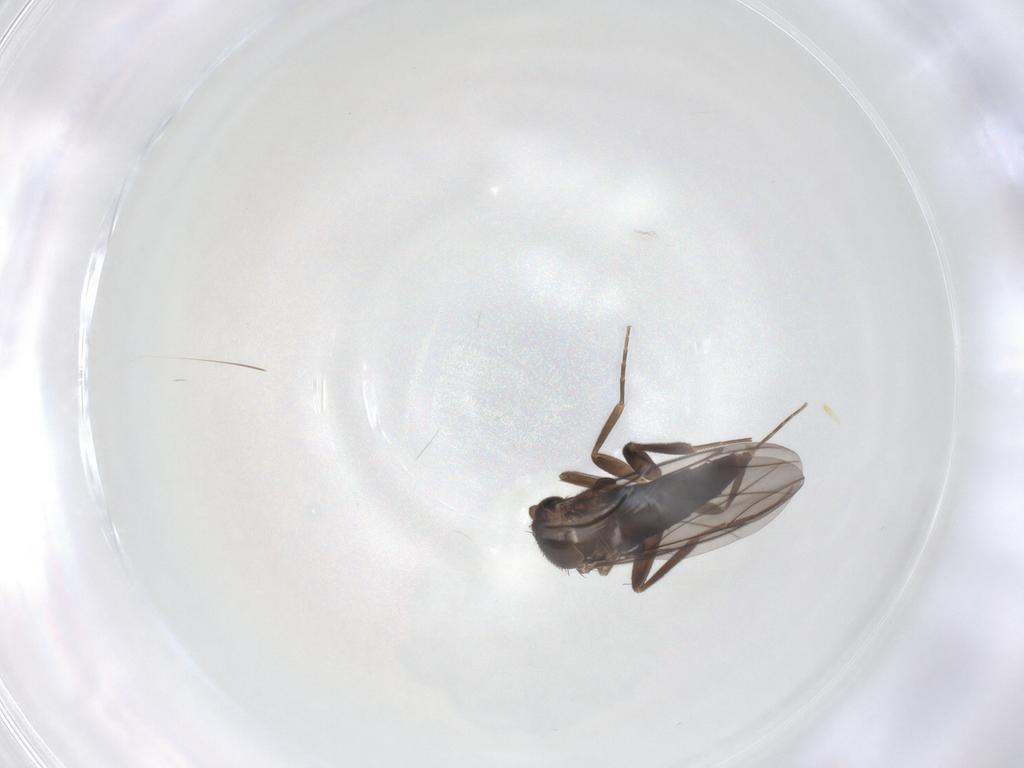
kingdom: Animalia
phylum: Arthropoda
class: Insecta
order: Diptera
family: Phoridae
